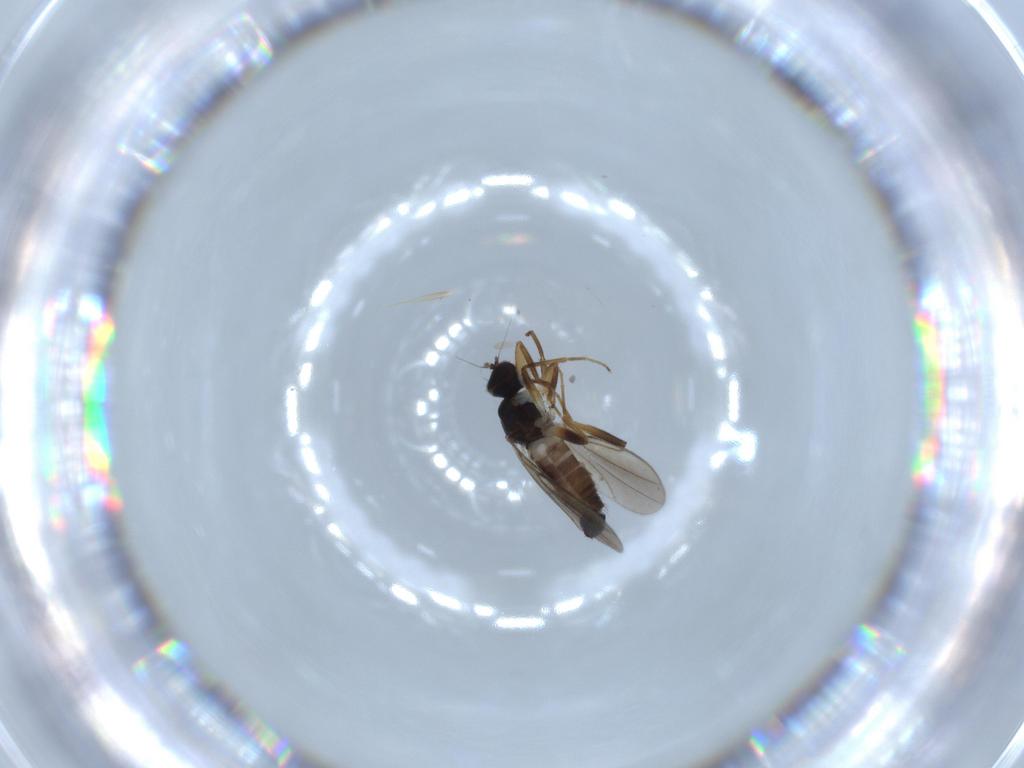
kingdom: Animalia
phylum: Arthropoda
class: Insecta
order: Diptera
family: Hybotidae
